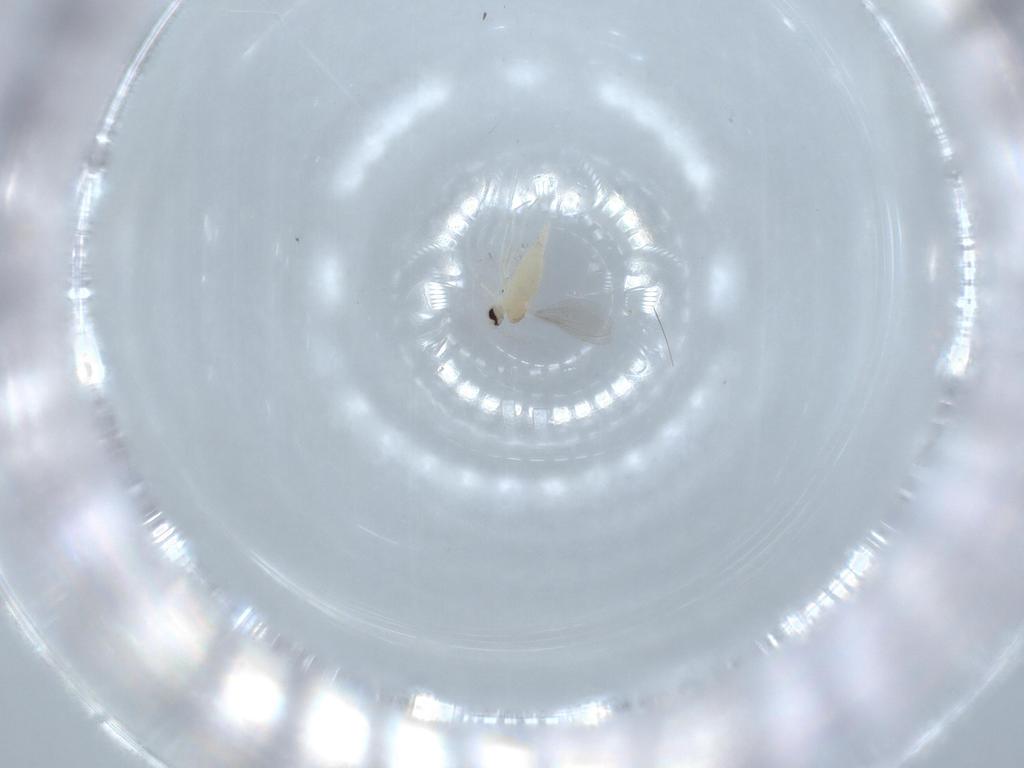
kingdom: Animalia
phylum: Arthropoda
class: Insecta
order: Diptera
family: Cecidomyiidae
